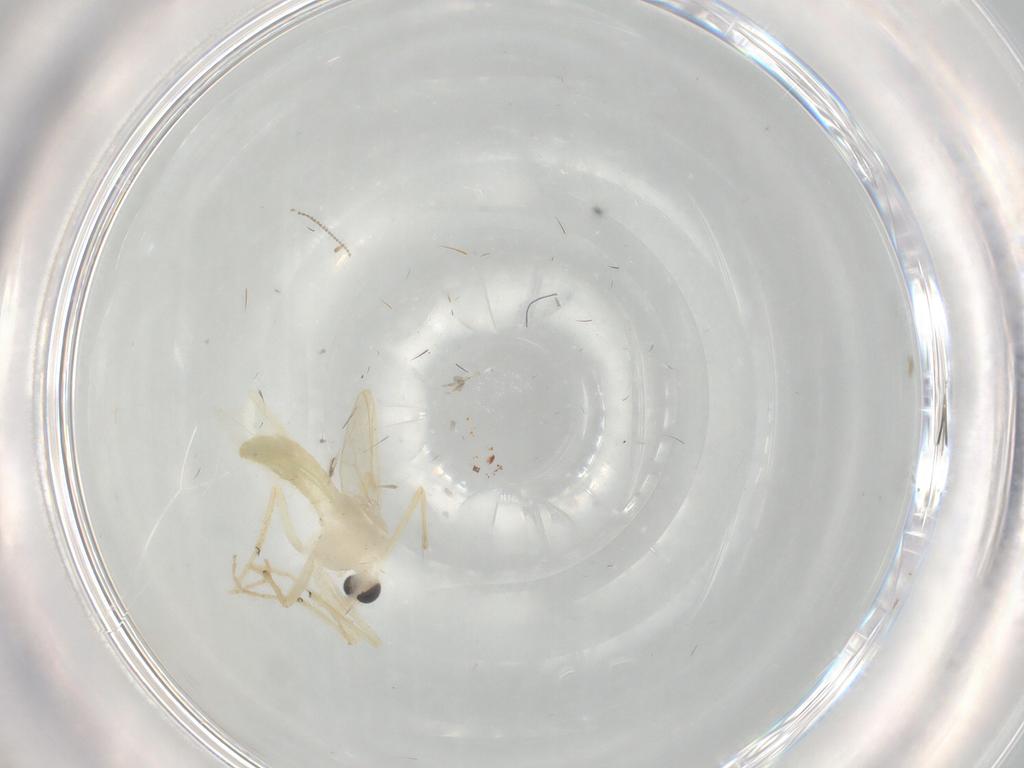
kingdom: Animalia
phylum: Arthropoda
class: Insecta
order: Diptera
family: Chironomidae
